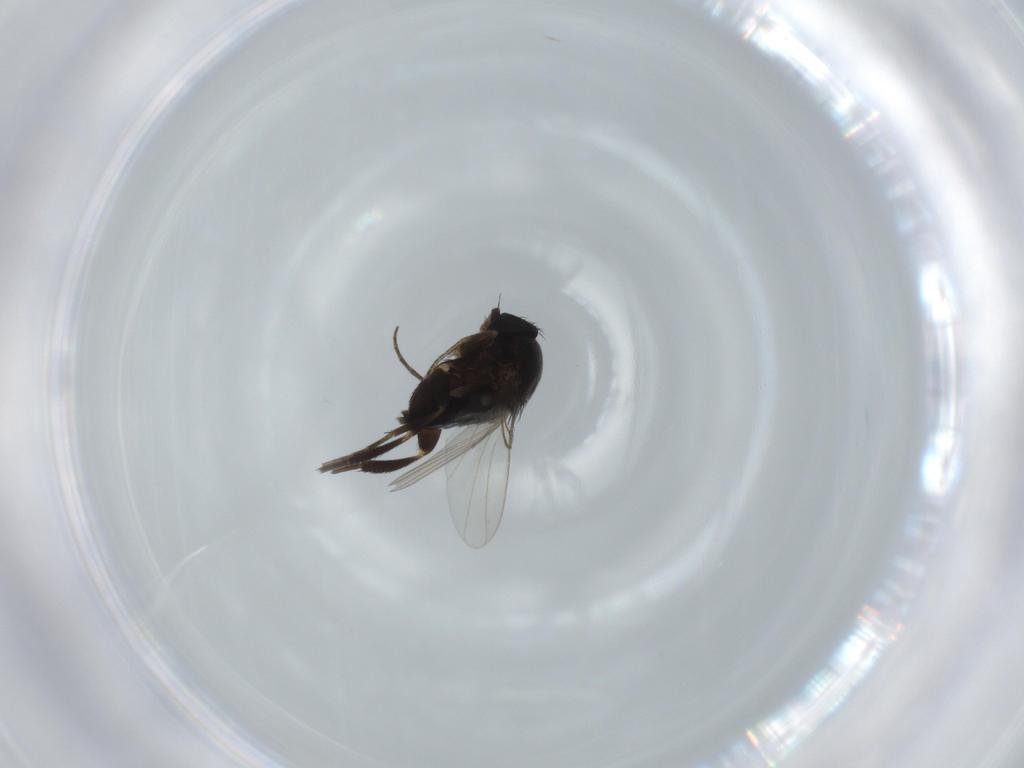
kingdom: Animalia
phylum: Arthropoda
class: Insecta
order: Diptera
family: Phoridae
